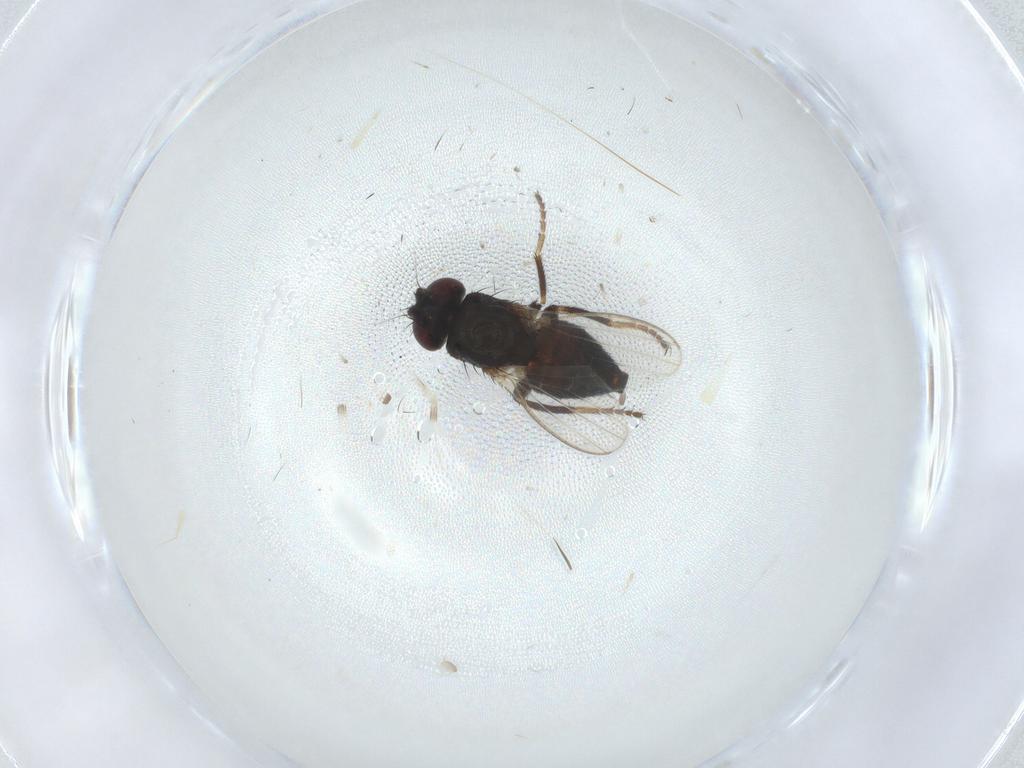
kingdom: Animalia
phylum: Arthropoda
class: Insecta
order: Diptera
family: Milichiidae
